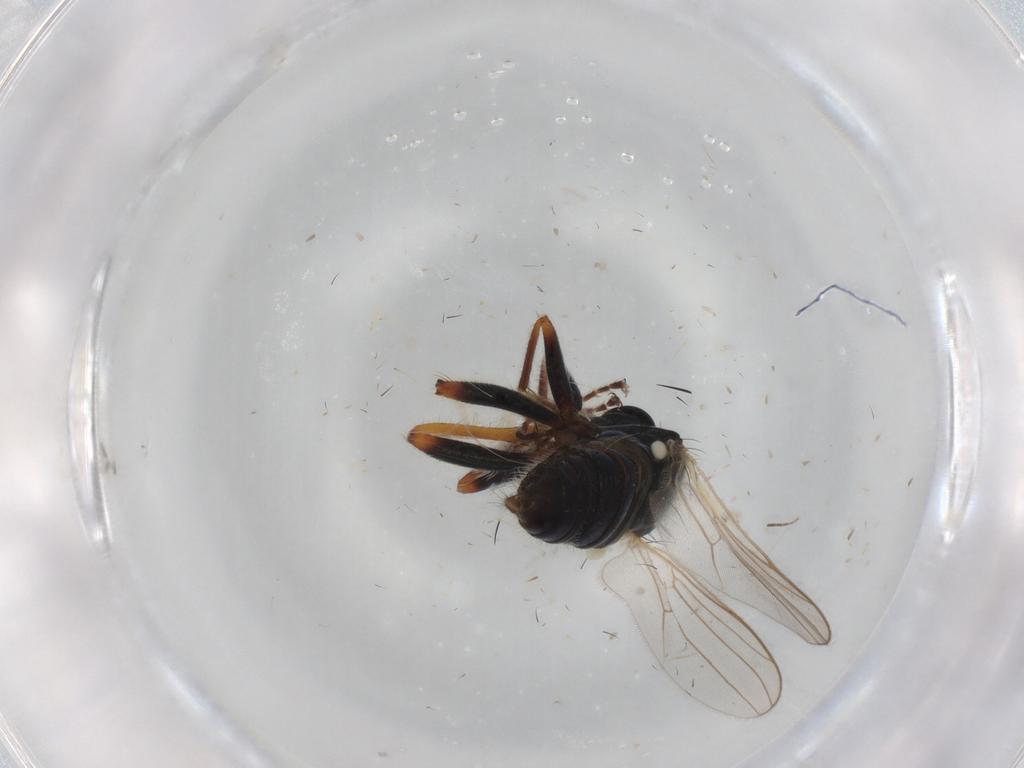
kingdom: Animalia
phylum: Arthropoda
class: Insecta
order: Diptera
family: Hybotidae
